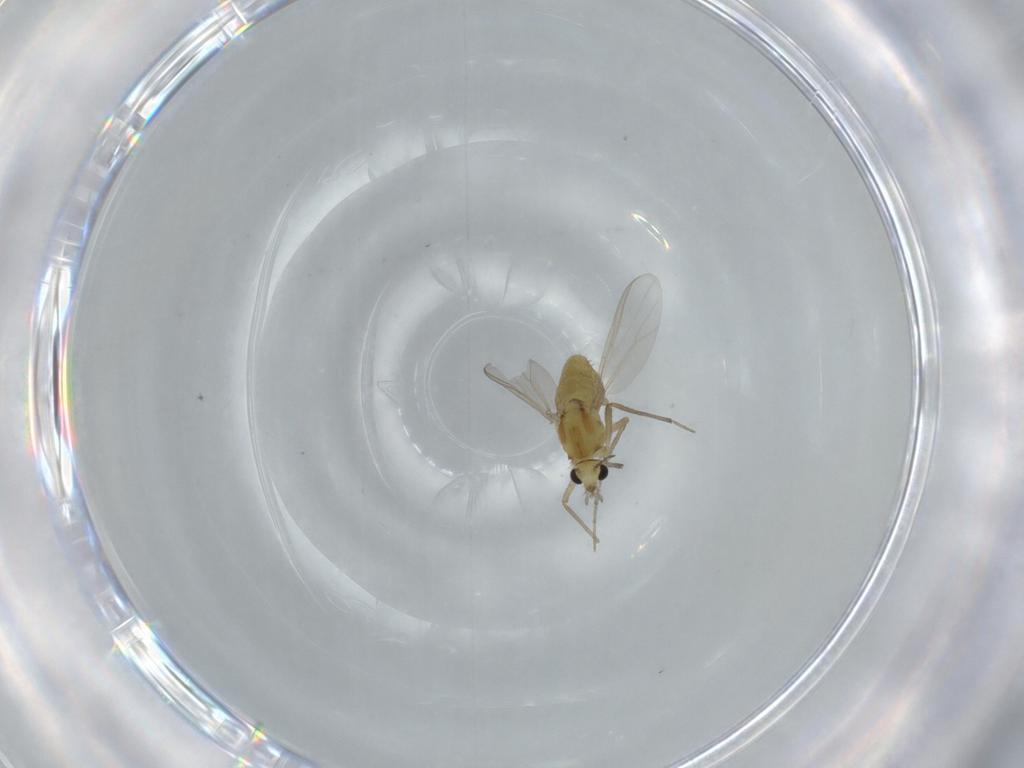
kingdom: Animalia
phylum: Arthropoda
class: Insecta
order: Diptera
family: Chironomidae
